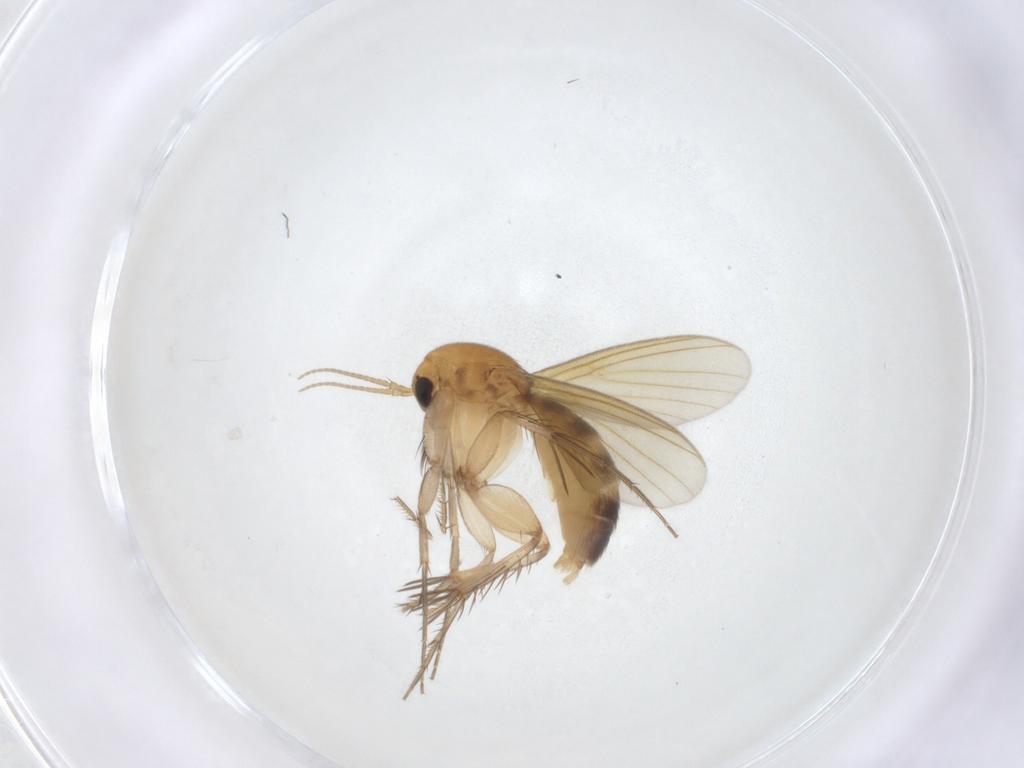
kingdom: Animalia
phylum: Arthropoda
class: Insecta
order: Diptera
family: Mycetophilidae
